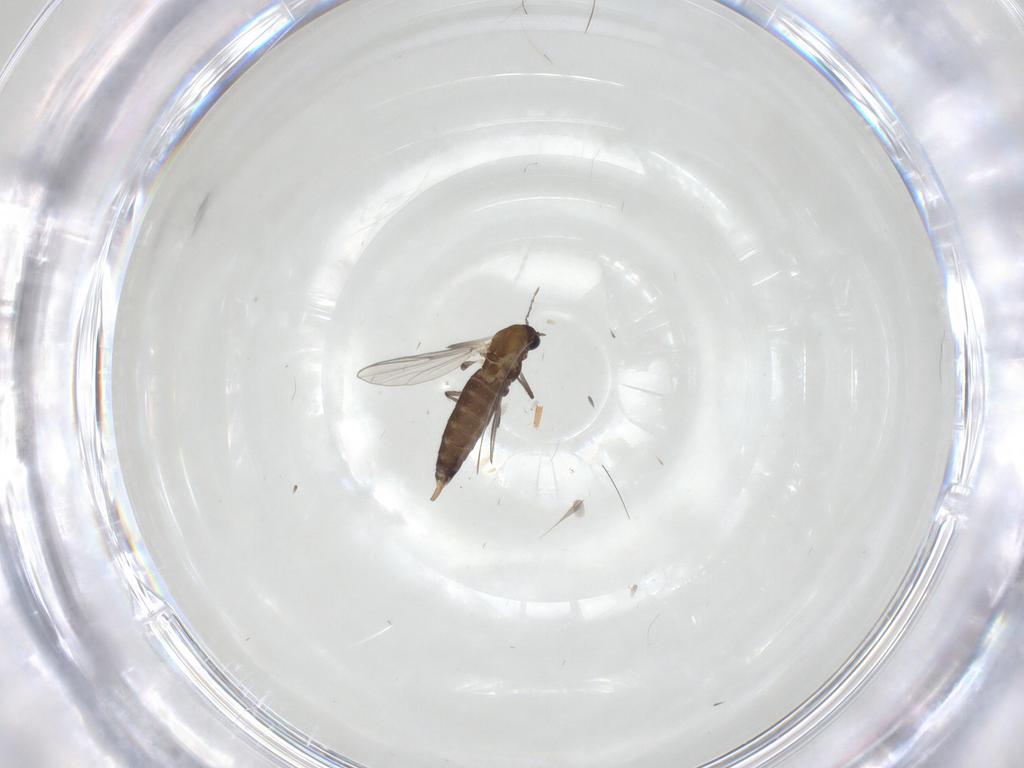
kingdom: Animalia
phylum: Arthropoda
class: Insecta
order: Diptera
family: Chironomidae
